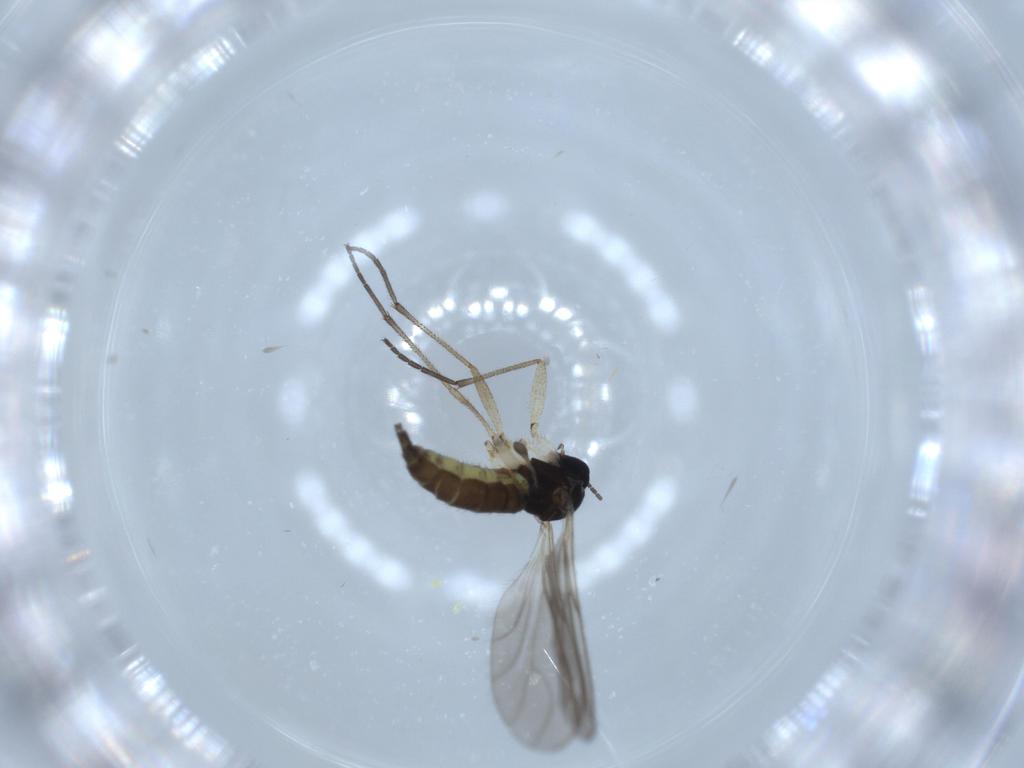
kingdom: Animalia
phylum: Arthropoda
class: Insecta
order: Diptera
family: Sciaridae
